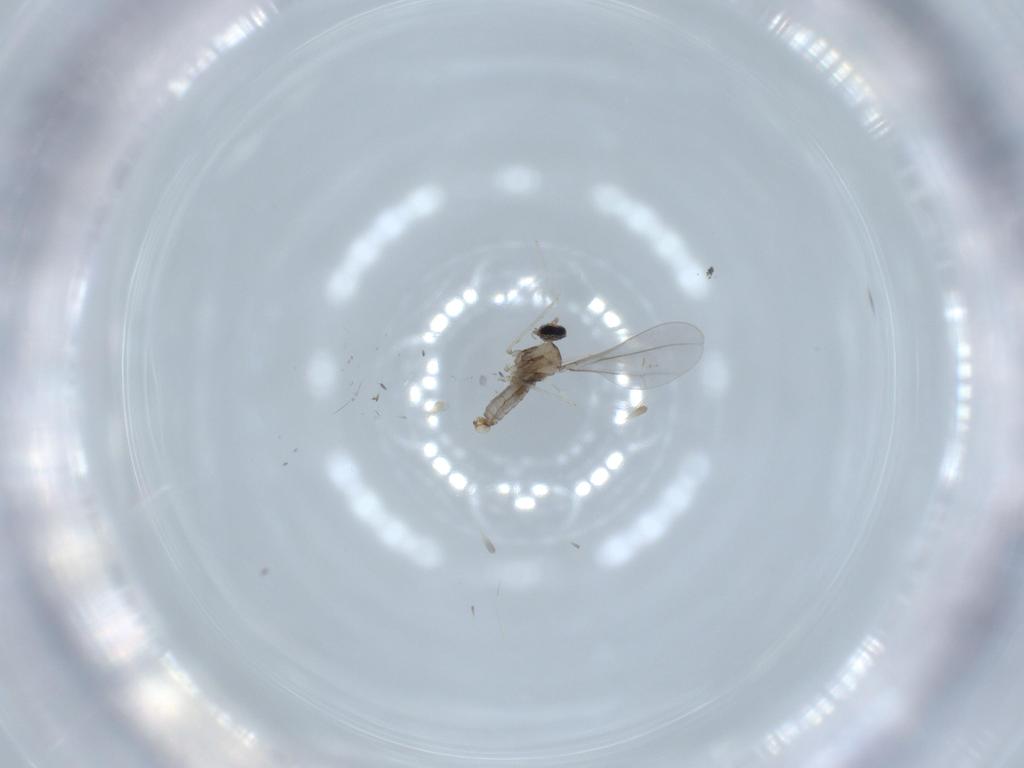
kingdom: Animalia
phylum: Arthropoda
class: Insecta
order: Diptera
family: Cecidomyiidae
